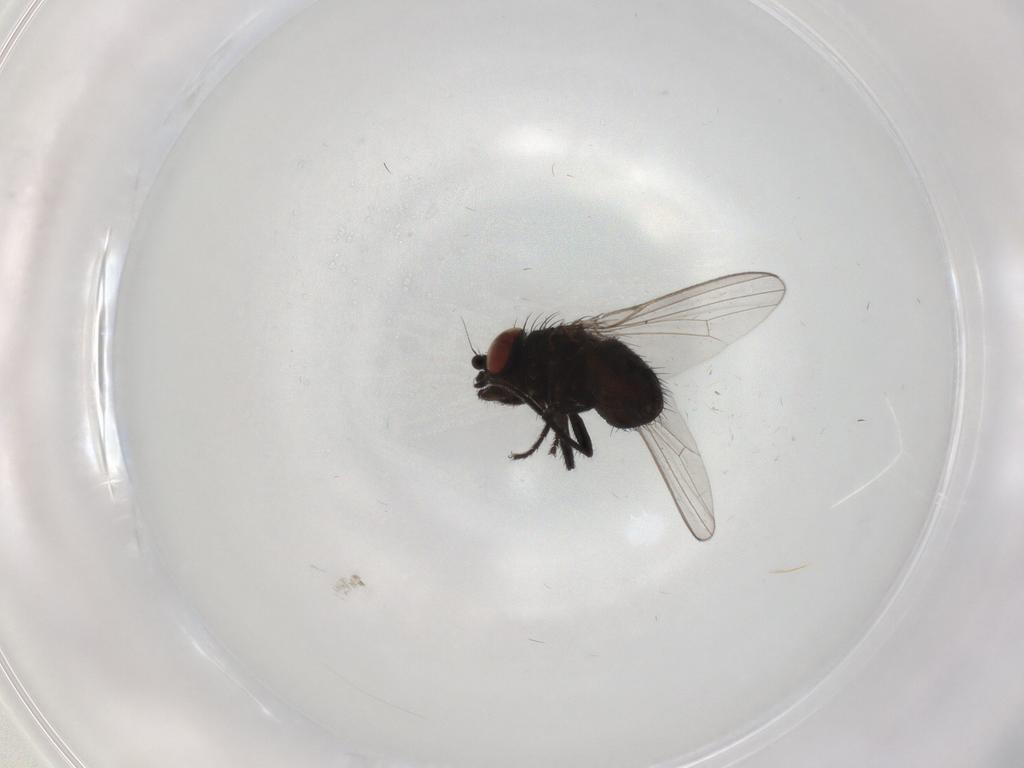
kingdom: Animalia
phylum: Arthropoda
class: Insecta
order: Diptera
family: Milichiidae
